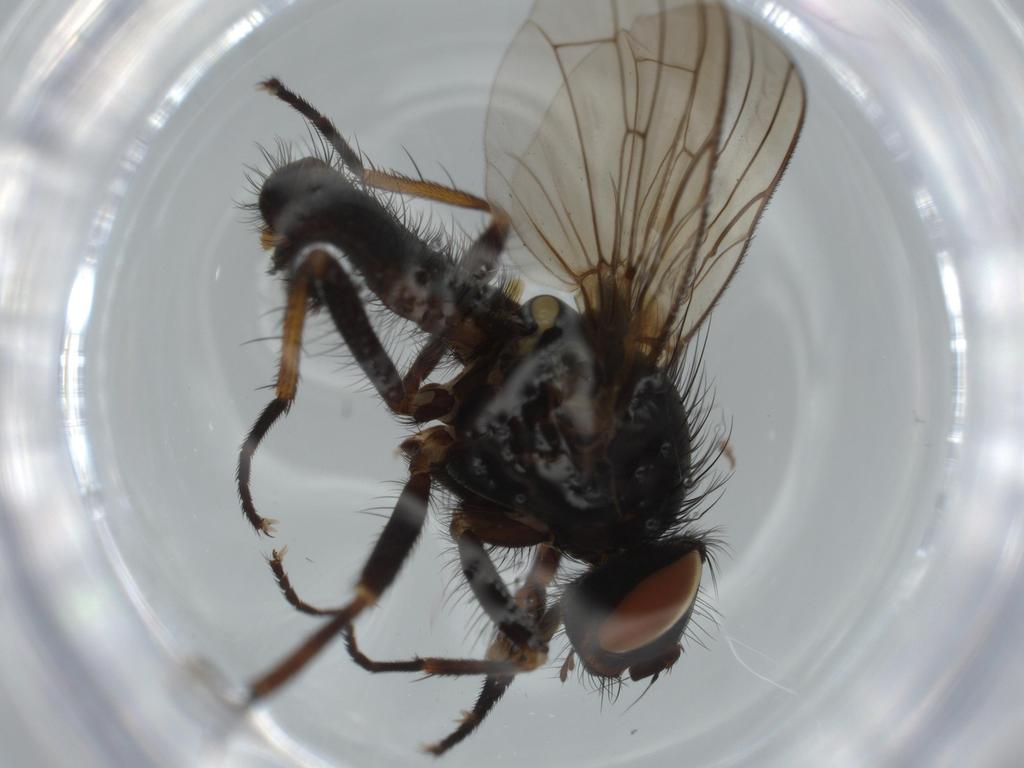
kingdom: Animalia
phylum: Arthropoda
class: Insecta
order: Diptera
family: Anthomyiidae
